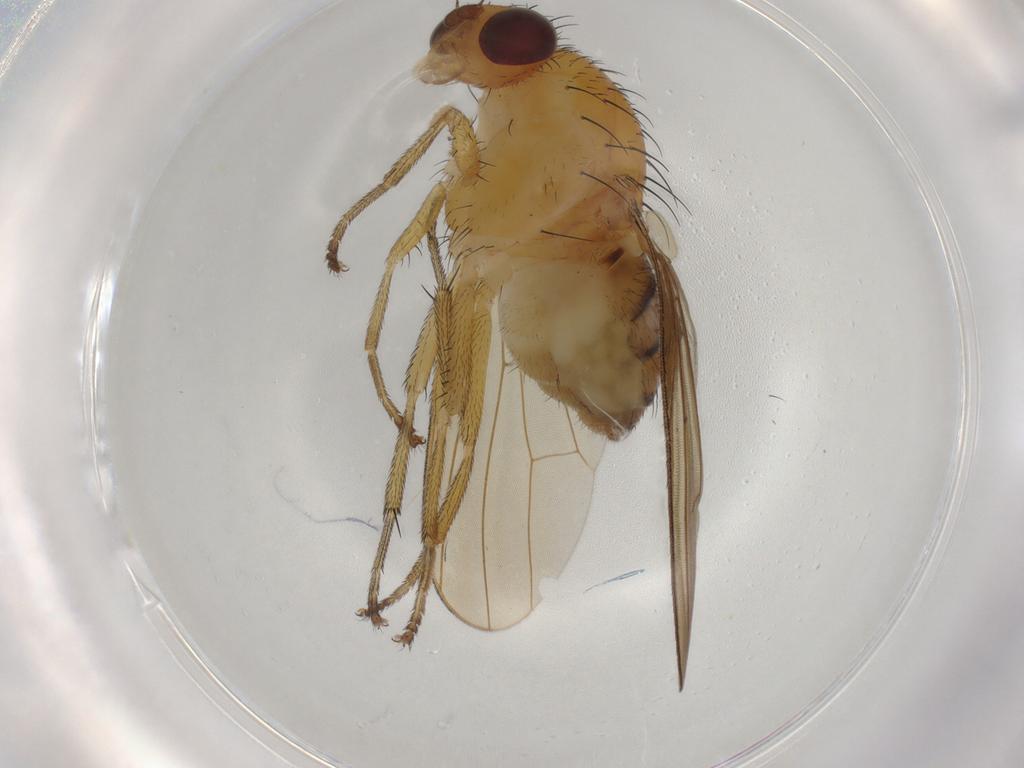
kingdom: Animalia
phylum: Arthropoda
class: Insecta
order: Diptera
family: Lauxaniidae
